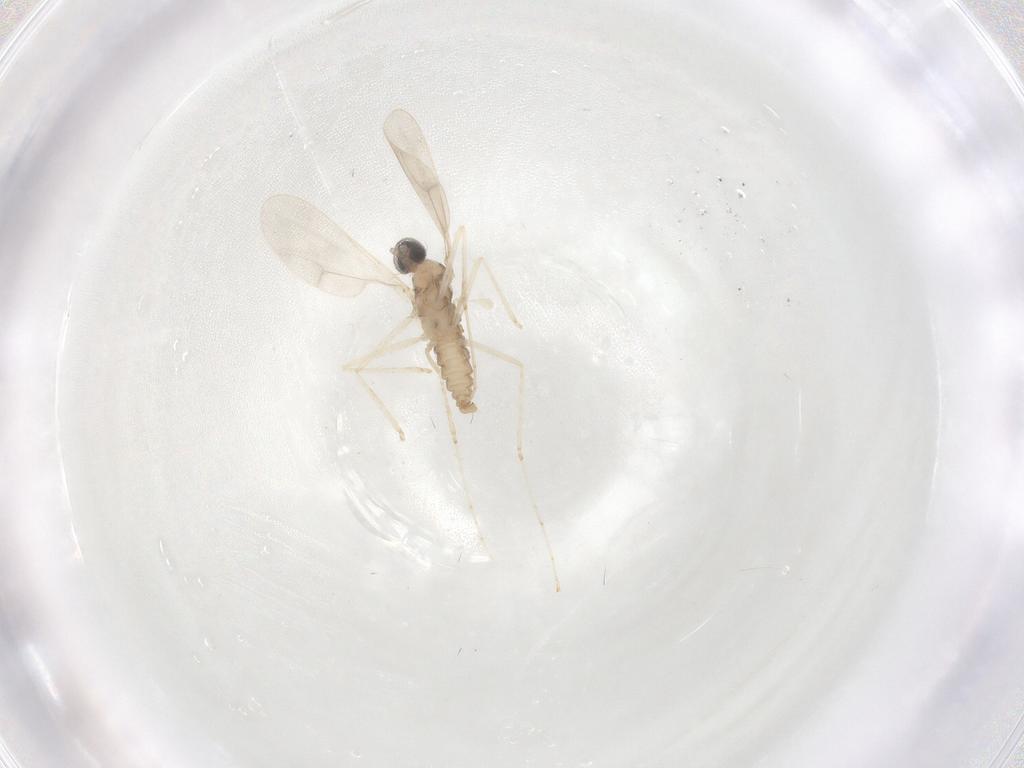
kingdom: Animalia
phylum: Arthropoda
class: Insecta
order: Diptera
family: Cecidomyiidae
